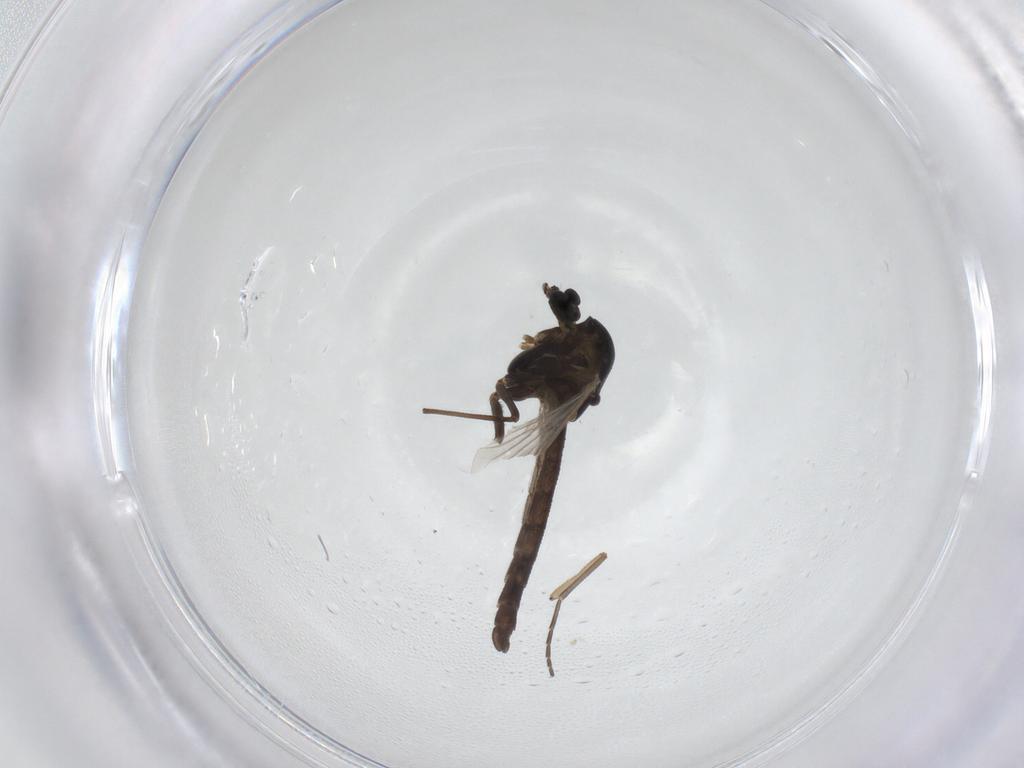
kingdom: Animalia
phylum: Arthropoda
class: Insecta
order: Diptera
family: Chironomidae
